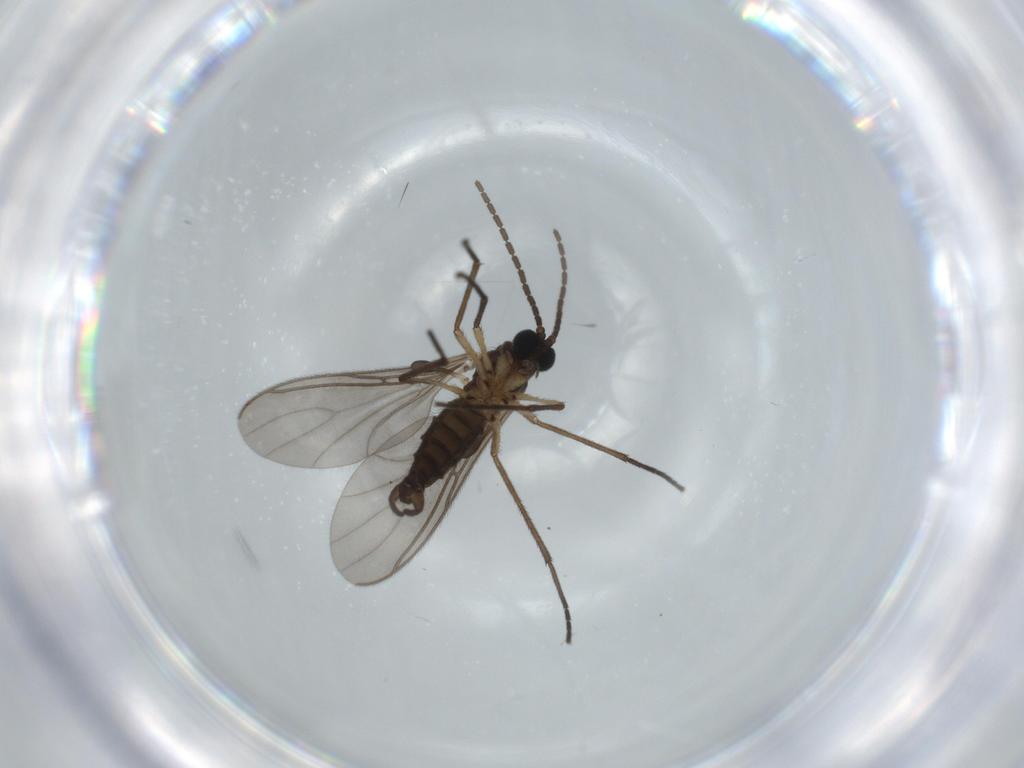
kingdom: Animalia
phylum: Arthropoda
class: Insecta
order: Diptera
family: Sciaridae
